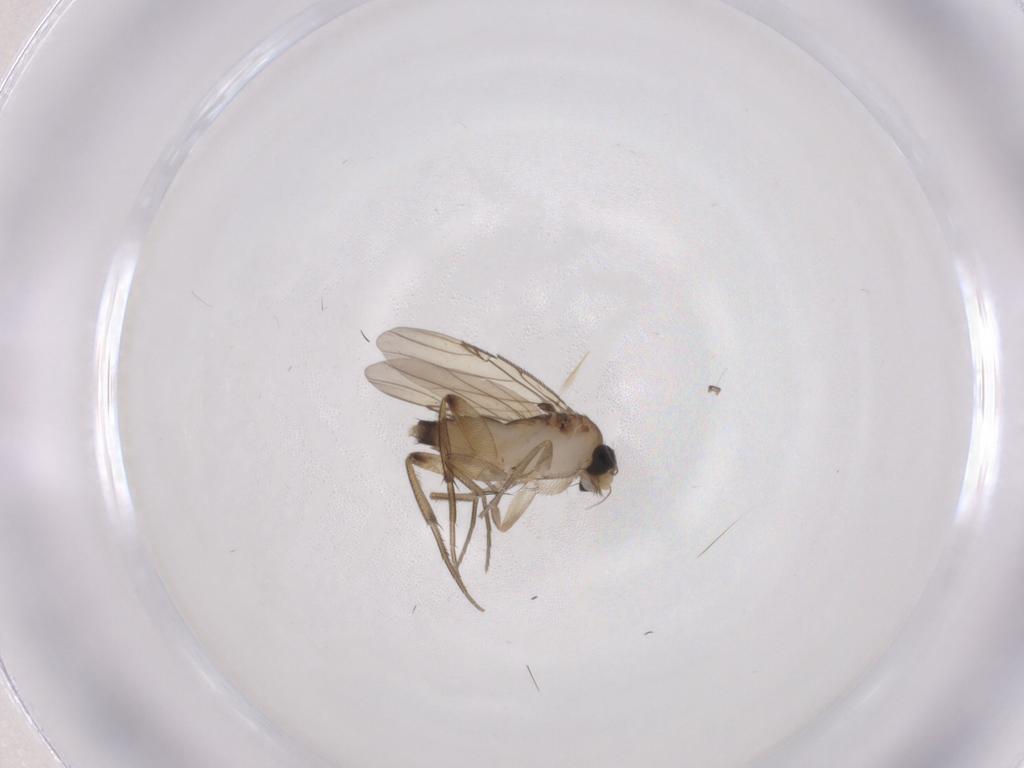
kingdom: Animalia
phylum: Arthropoda
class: Insecta
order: Diptera
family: Phoridae
